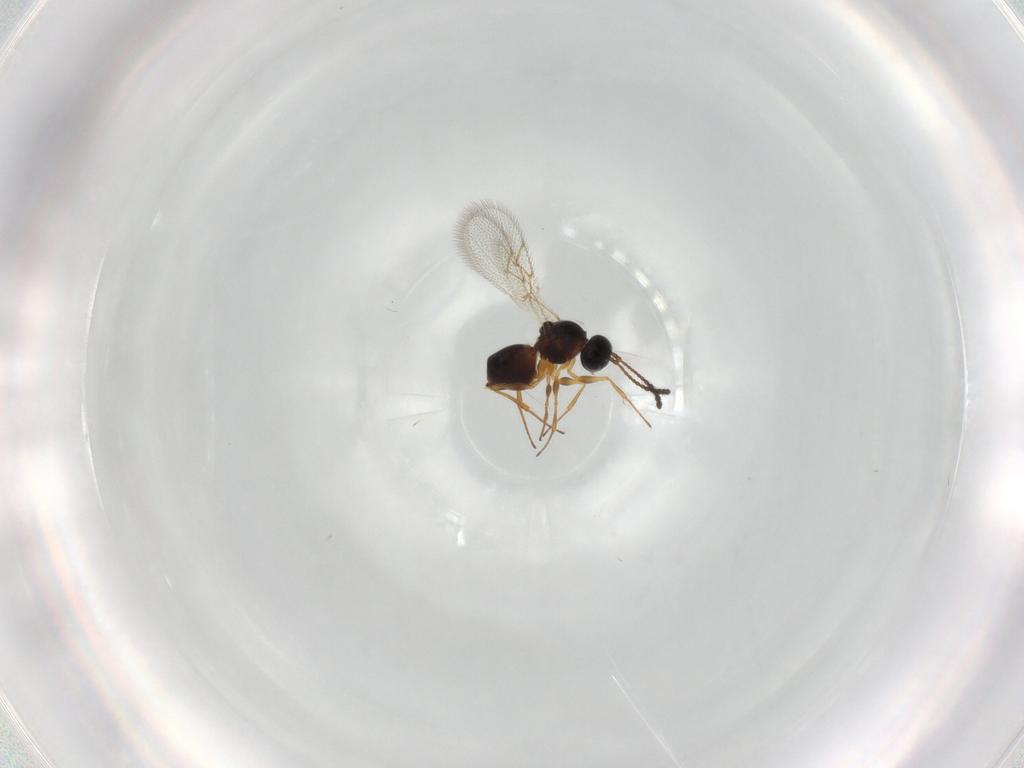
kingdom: Animalia
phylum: Arthropoda
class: Insecta
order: Hymenoptera
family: Figitidae
